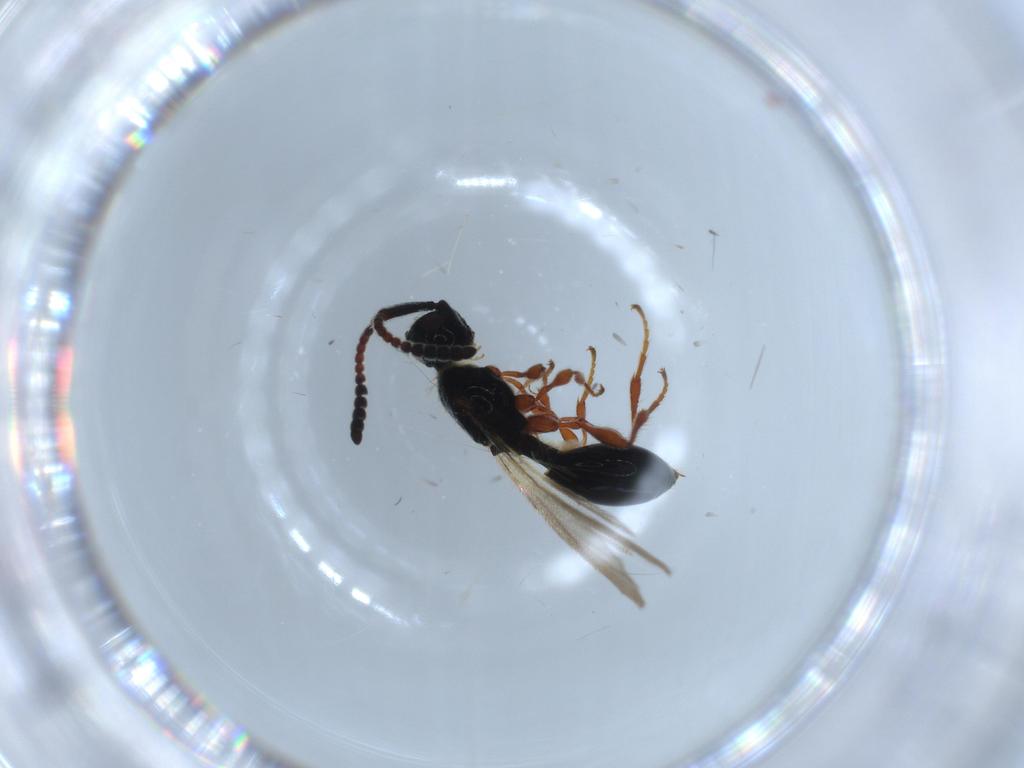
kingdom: Animalia
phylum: Arthropoda
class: Insecta
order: Hymenoptera
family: Diapriidae
